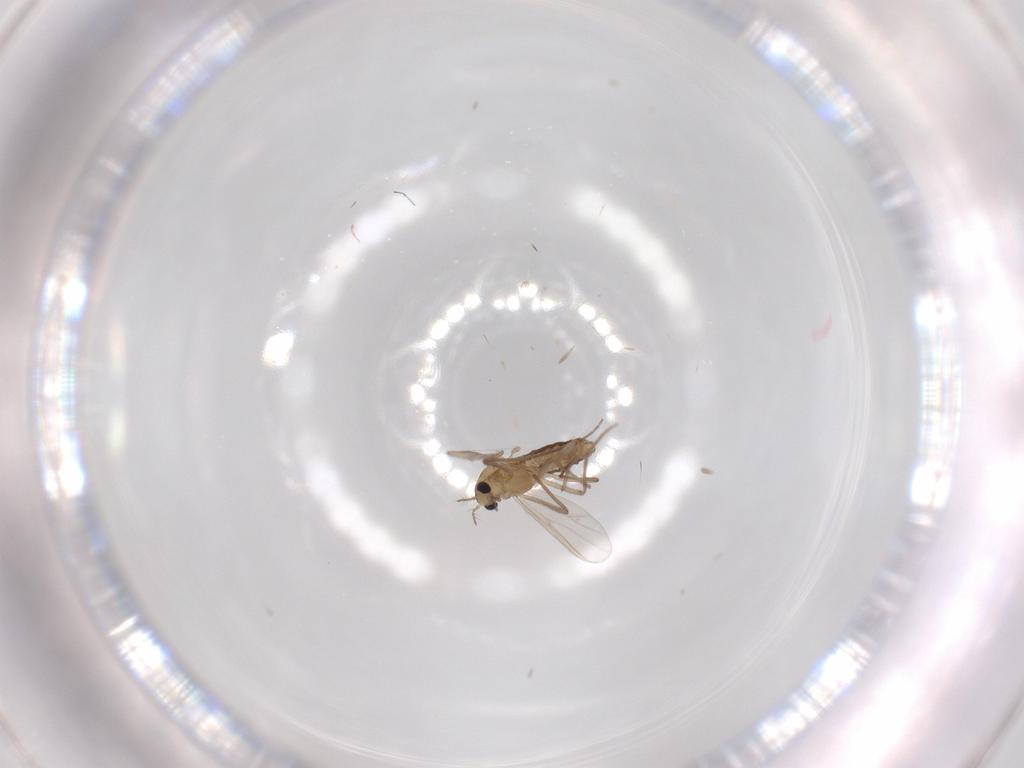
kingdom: Animalia
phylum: Arthropoda
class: Insecta
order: Diptera
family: Chironomidae
